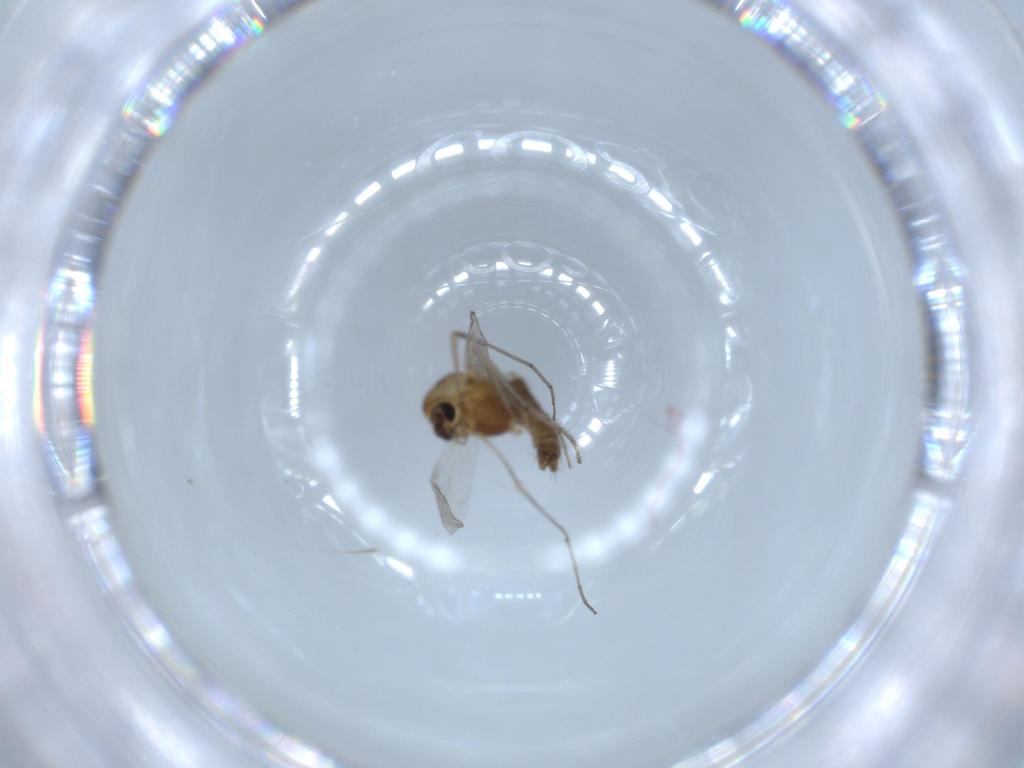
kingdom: Animalia
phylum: Arthropoda
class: Insecta
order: Diptera
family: Chironomidae
